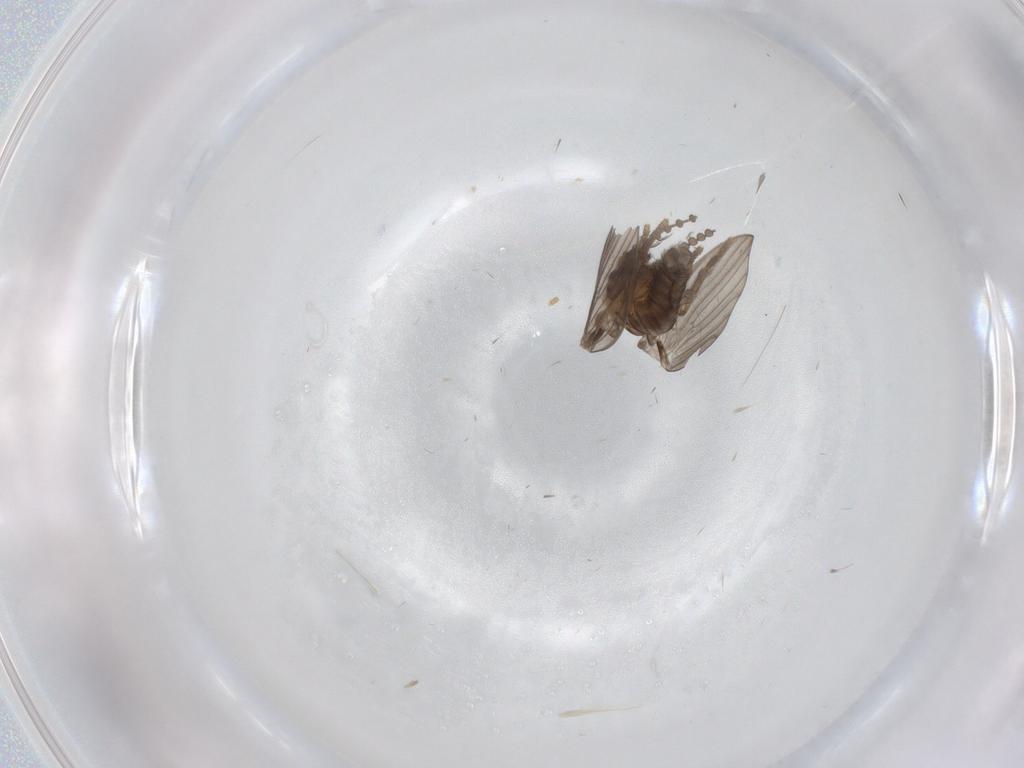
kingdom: Animalia
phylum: Arthropoda
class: Insecta
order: Diptera
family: Psychodidae
